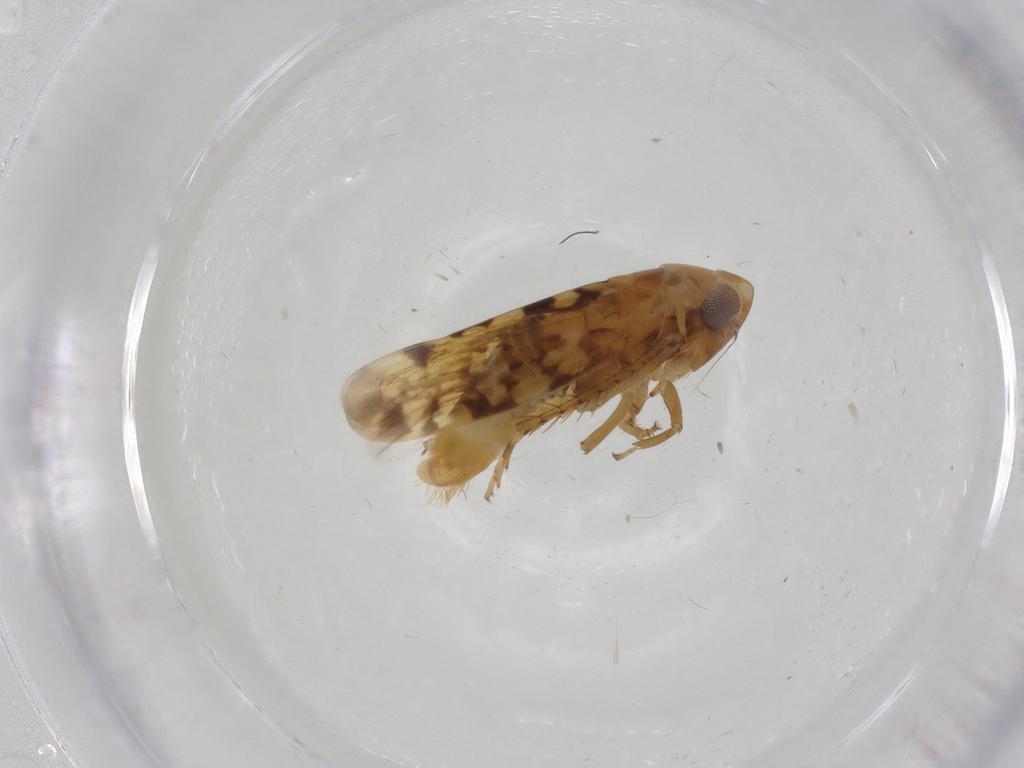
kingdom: Animalia
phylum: Arthropoda
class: Insecta
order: Hemiptera
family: Cicadellidae
